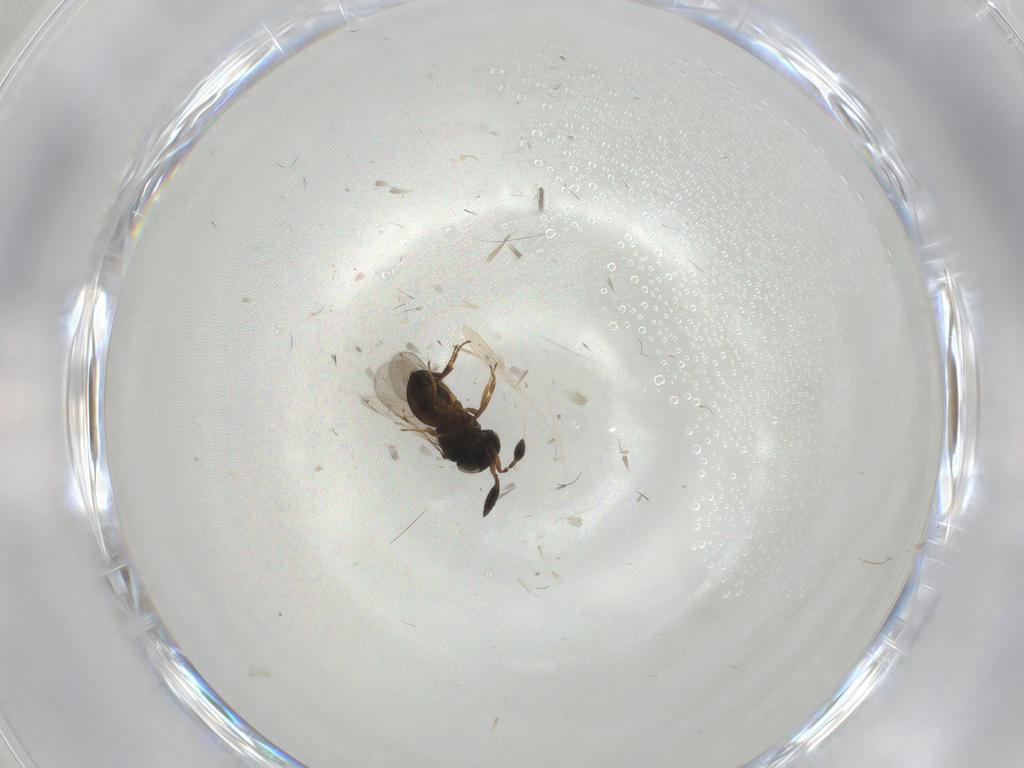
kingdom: Animalia
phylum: Arthropoda
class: Insecta
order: Hymenoptera
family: Scelionidae
